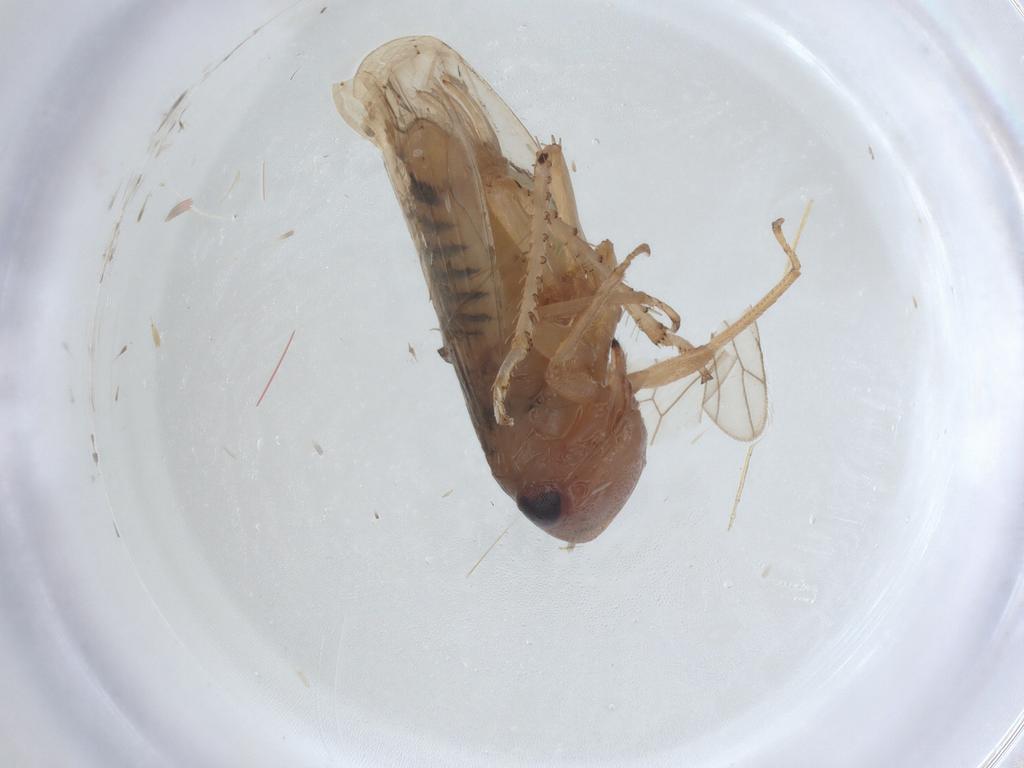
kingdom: Animalia
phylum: Arthropoda
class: Insecta
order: Hemiptera
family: Cicadellidae
